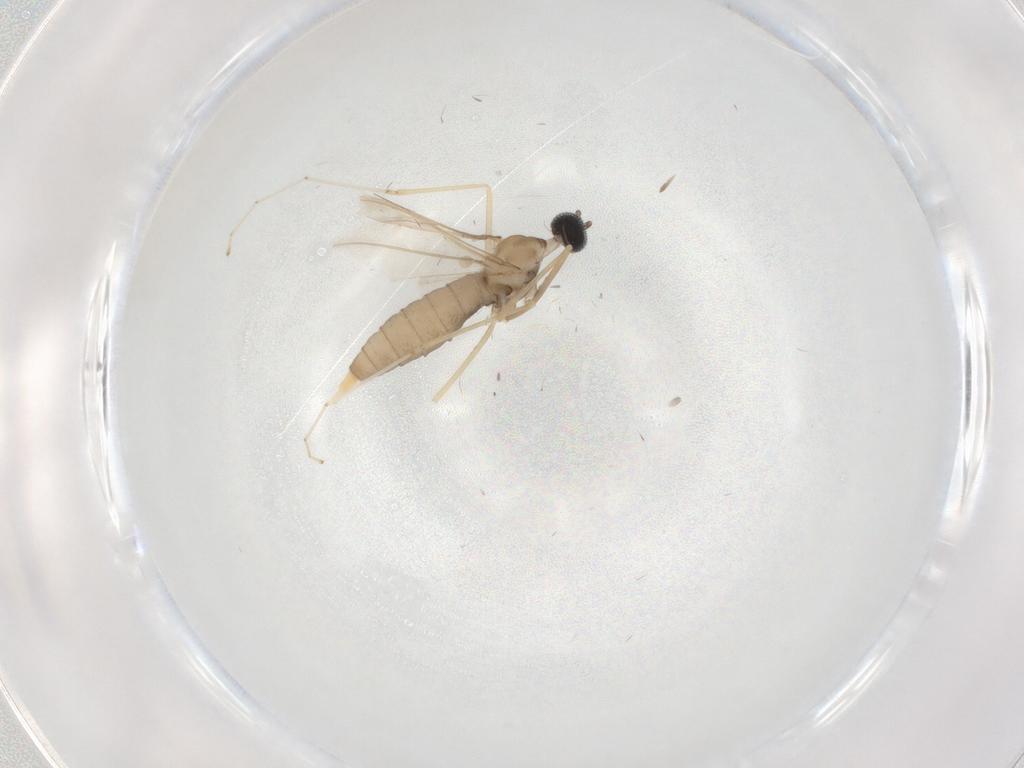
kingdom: Animalia
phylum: Arthropoda
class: Insecta
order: Diptera
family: Cecidomyiidae
